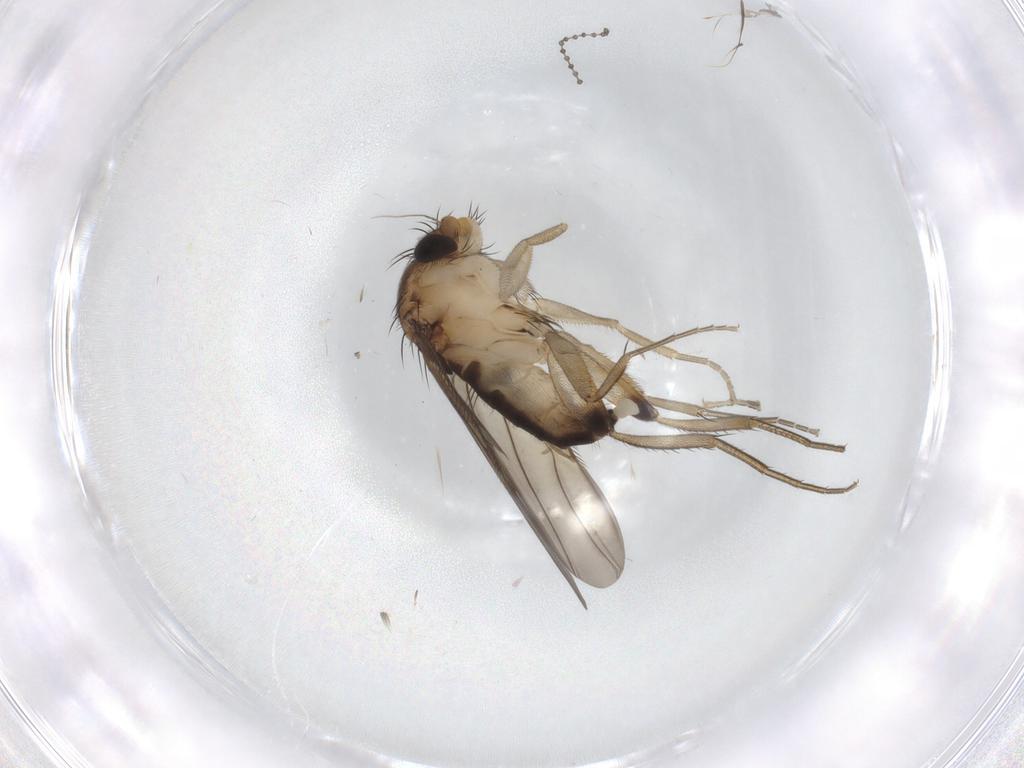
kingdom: Animalia
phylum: Arthropoda
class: Insecta
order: Diptera
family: Phoridae
